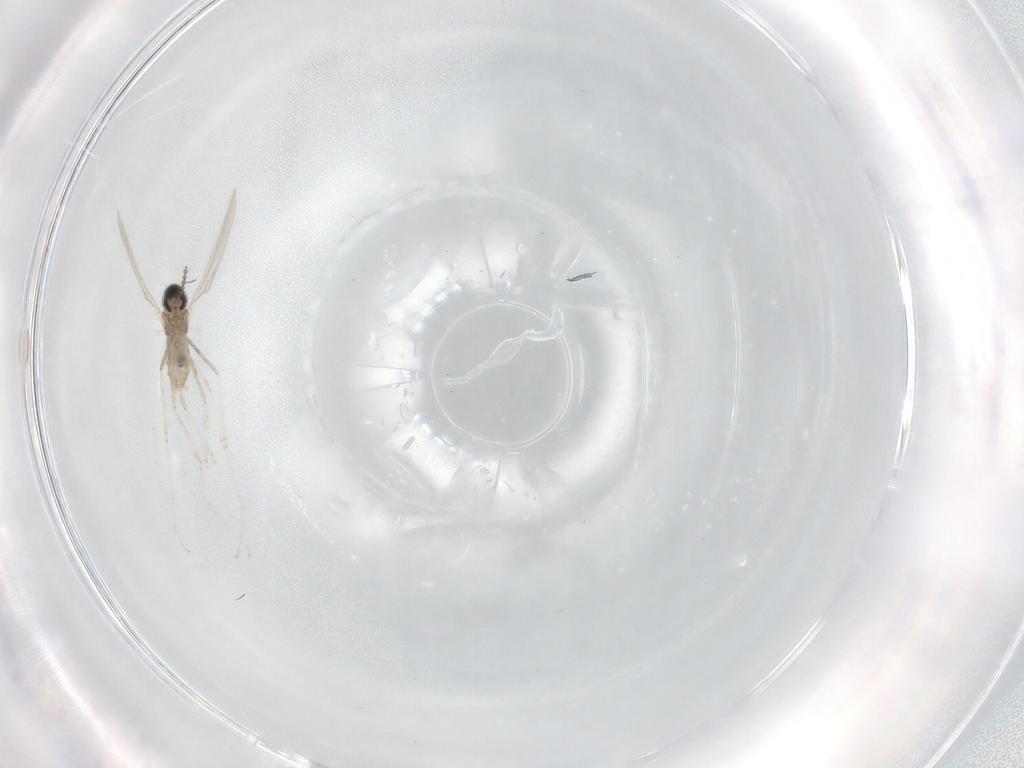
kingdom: Animalia
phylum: Arthropoda
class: Insecta
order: Diptera
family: Cecidomyiidae
